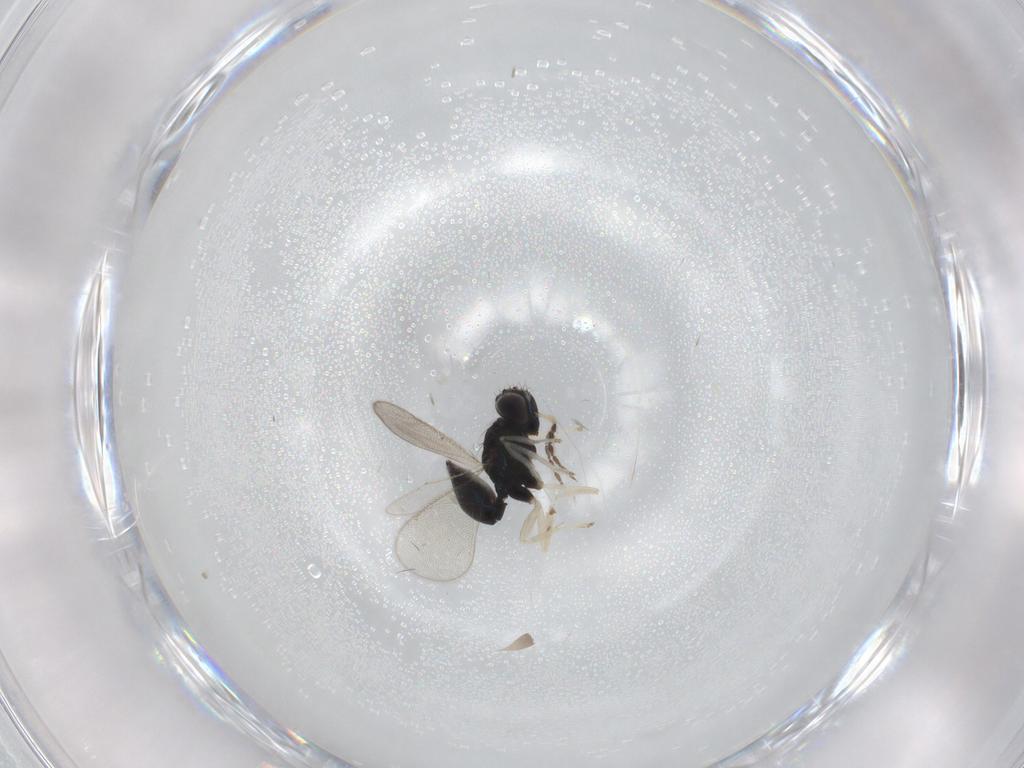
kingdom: Animalia
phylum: Arthropoda
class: Insecta
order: Hymenoptera
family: Eulophidae
